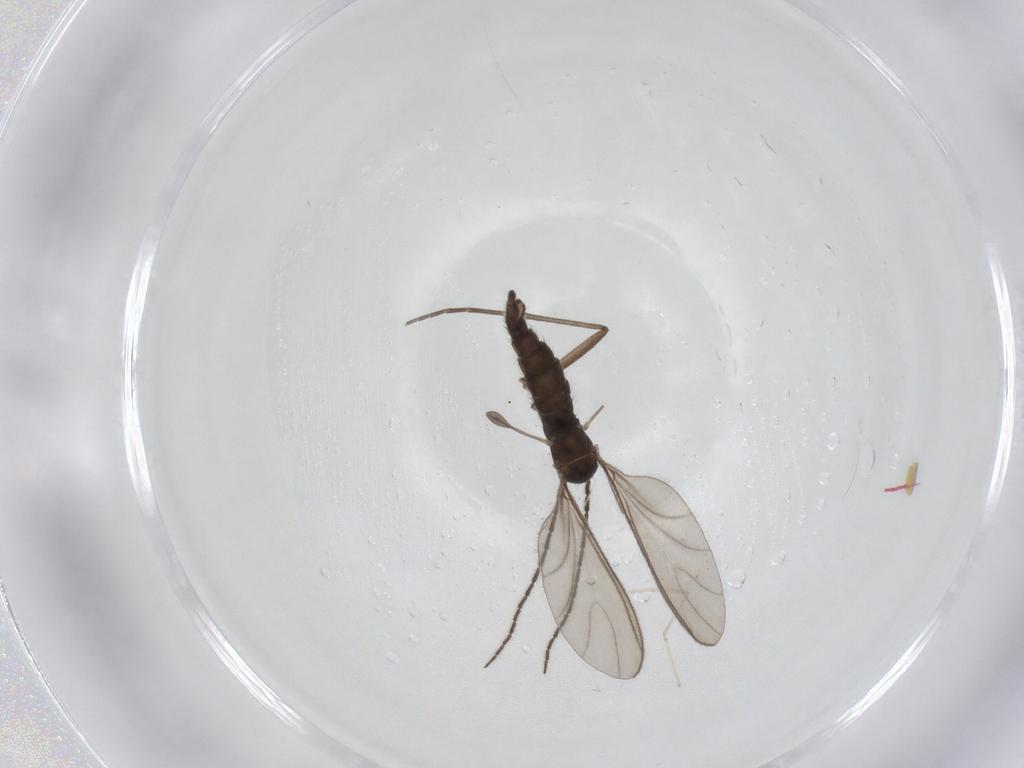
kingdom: Animalia
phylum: Arthropoda
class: Insecta
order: Diptera
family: Sciaridae
